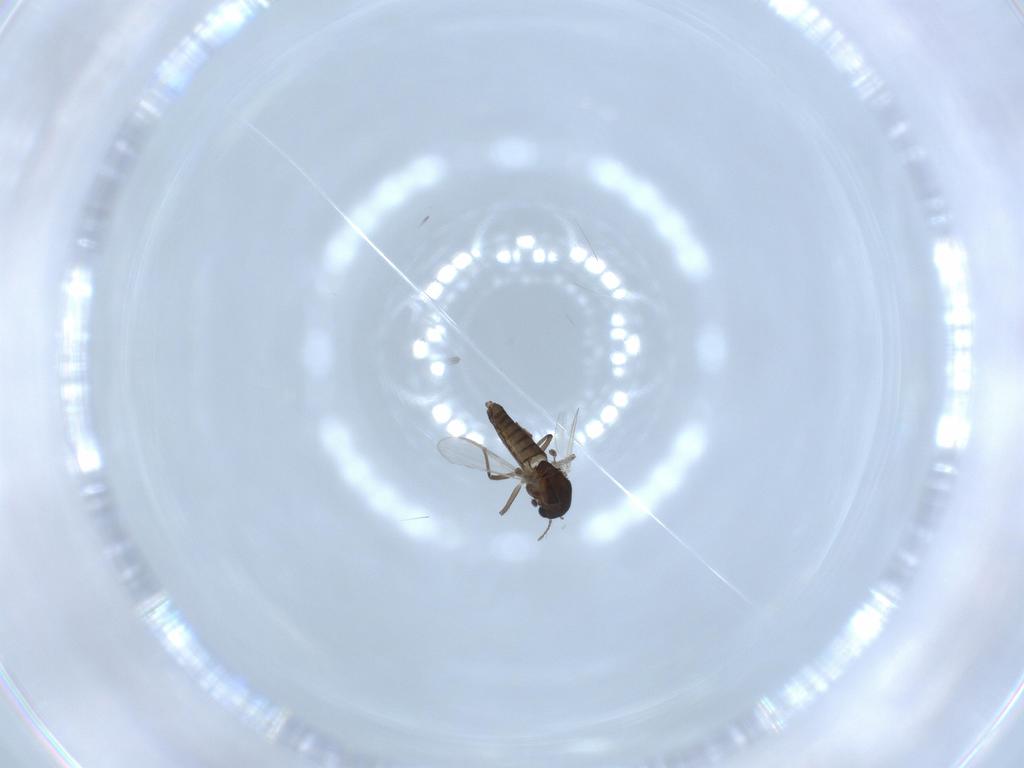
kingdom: Animalia
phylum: Arthropoda
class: Insecta
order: Diptera
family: Chironomidae
